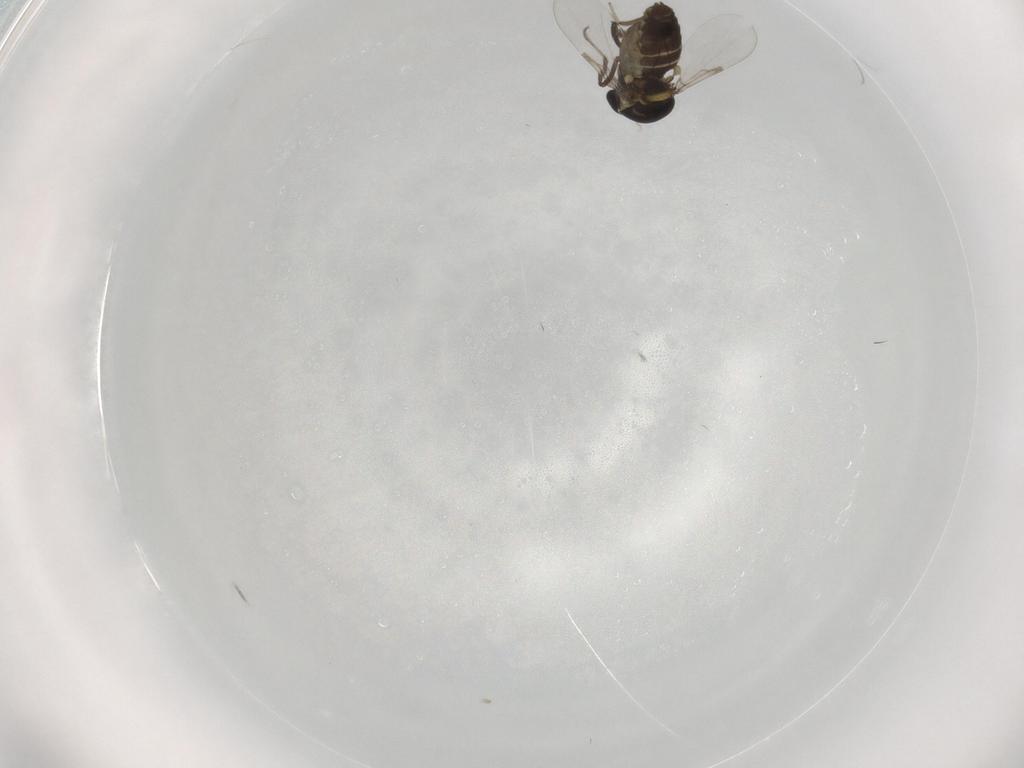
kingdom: Animalia
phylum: Arthropoda
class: Insecta
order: Diptera
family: Ceratopogonidae
